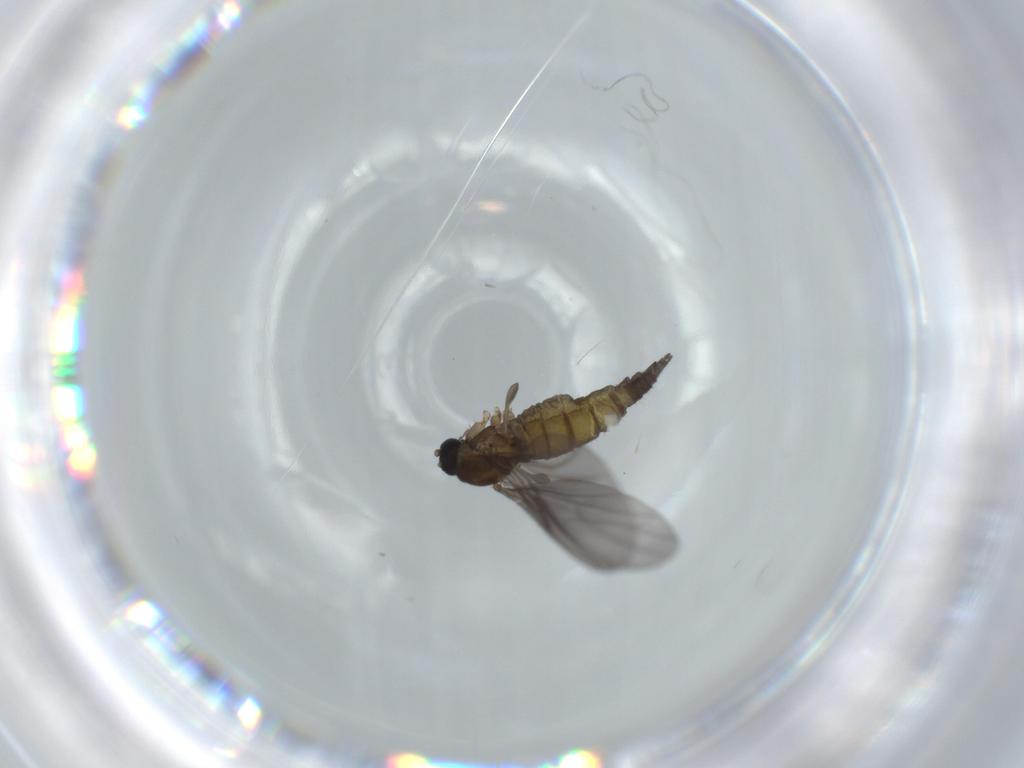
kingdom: Animalia
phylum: Arthropoda
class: Insecta
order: Diptera
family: Sciaridae
